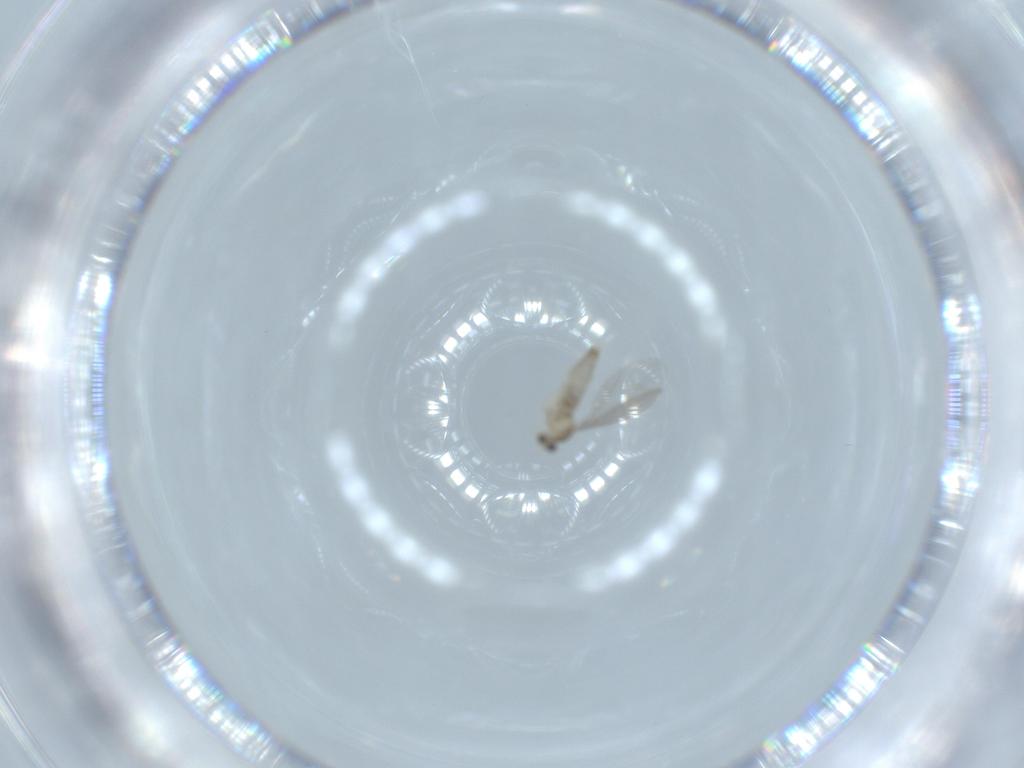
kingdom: Animalia
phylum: Arthropoda
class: Insecta
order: Diptera
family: Cecidomyiidae
